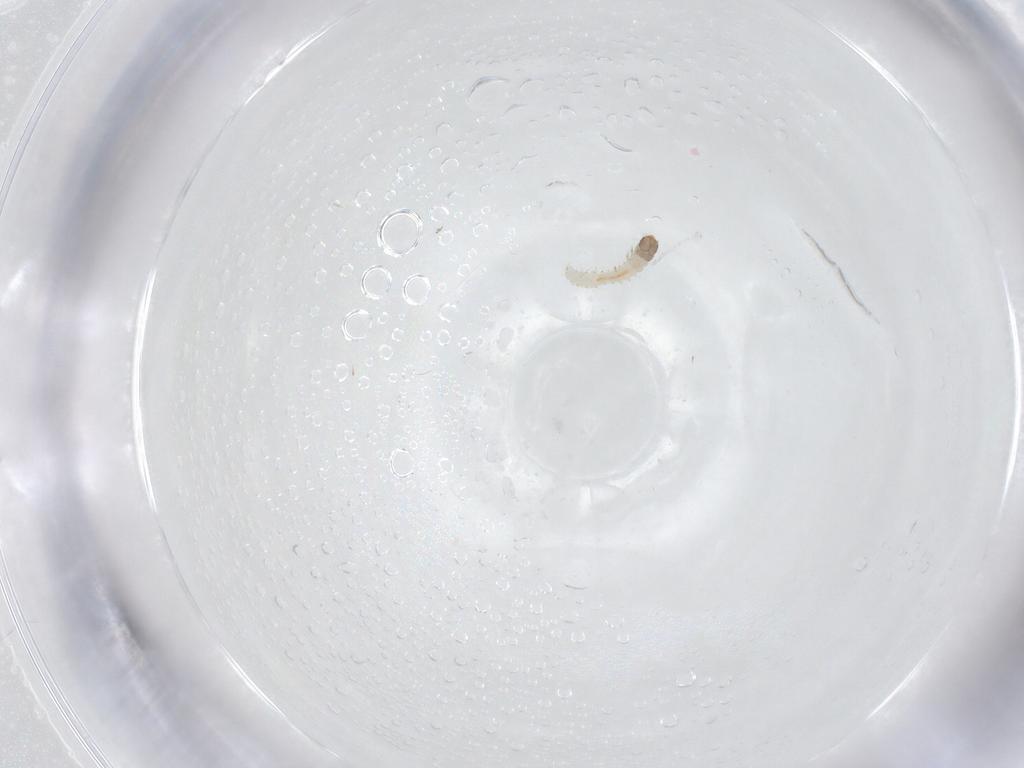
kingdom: Animalia
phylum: Arthropoda
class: Insecta
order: Lepidoptera
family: Lecithoceridae
